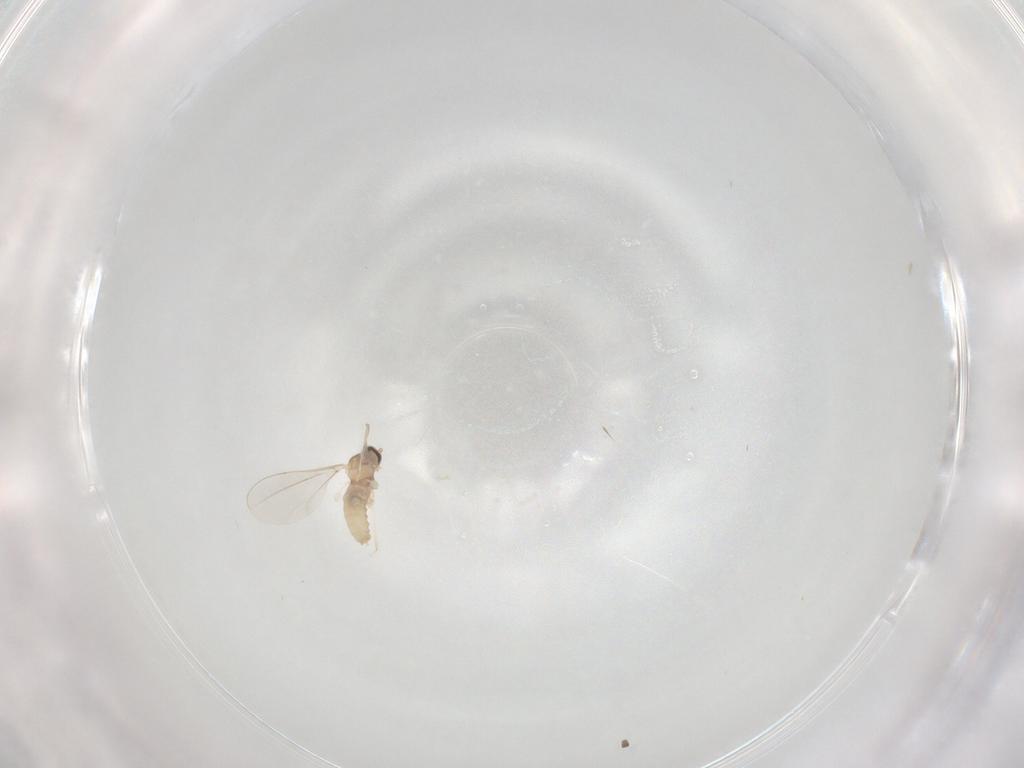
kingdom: Animalia
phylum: Arthropoda
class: Insecta
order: Diptera
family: Cecidomyiidae
